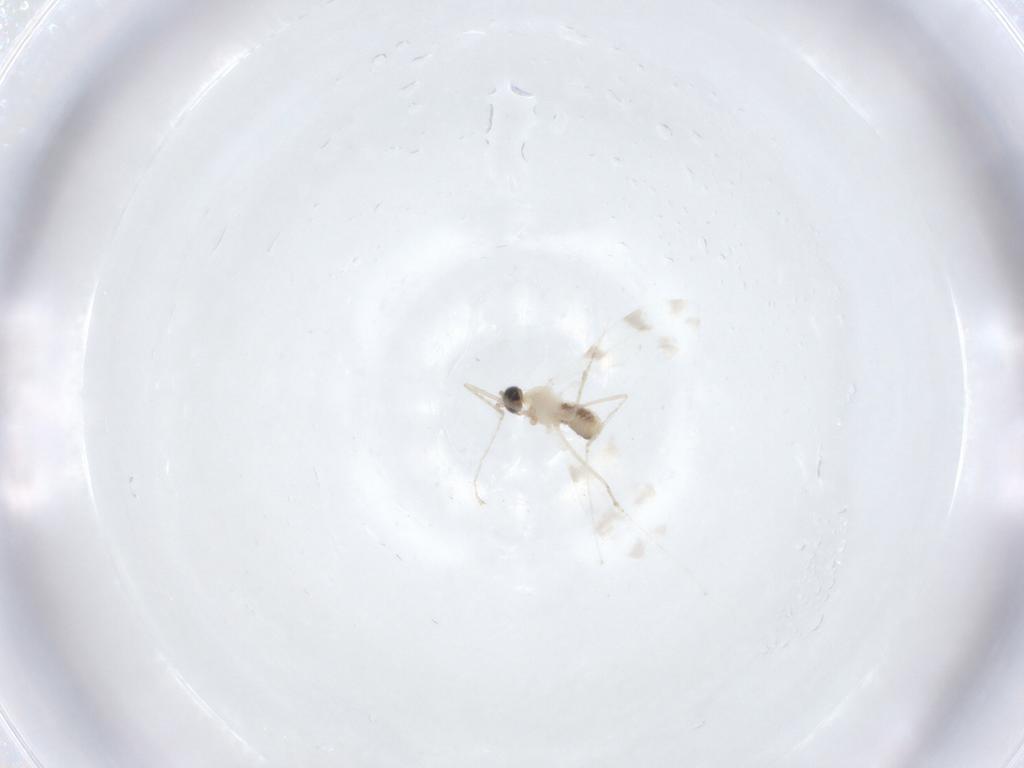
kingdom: Animalia
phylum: Arthropoda
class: Insecta
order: Diptera
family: Cecidomyiidae
